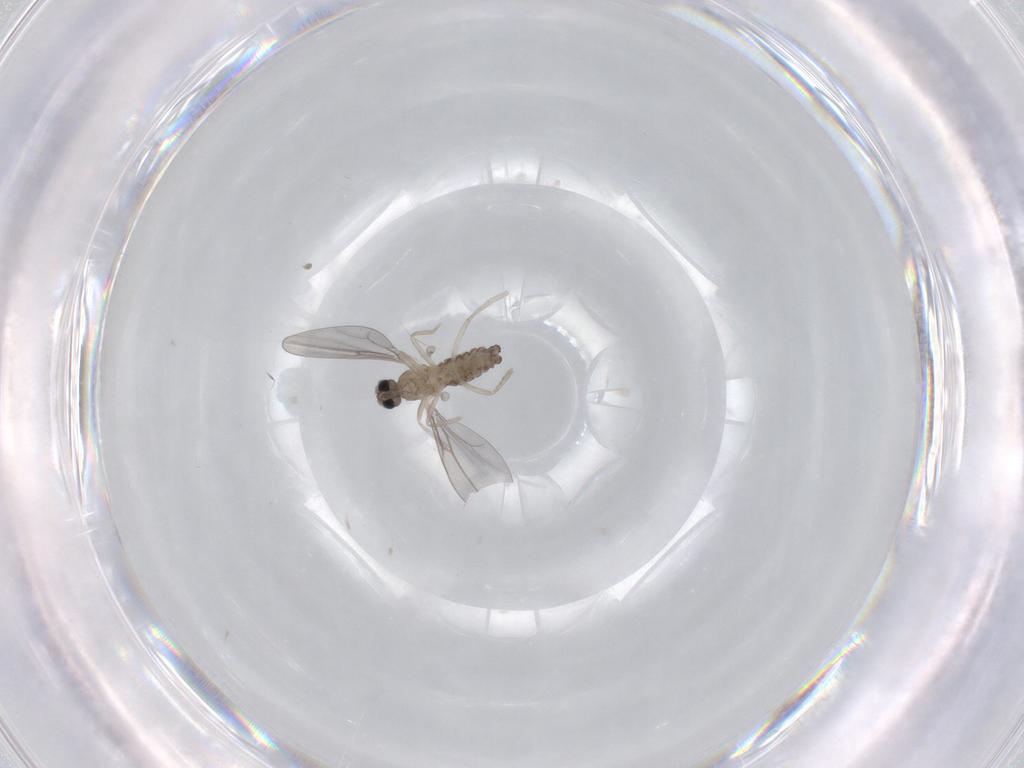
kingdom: Animalia
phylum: Arthropoda
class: Insecta
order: Diptera
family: Cecidomyiidae
